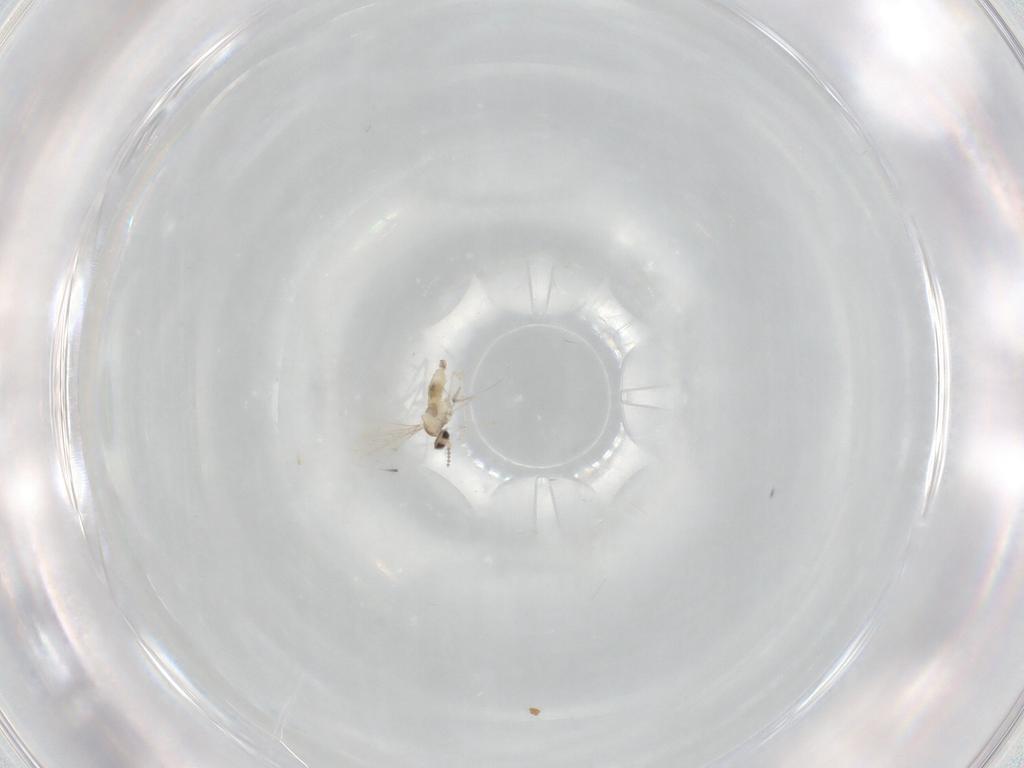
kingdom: Animalia
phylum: Arthropoda
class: Insecta
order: Diptera
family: Cecidomyiidae
